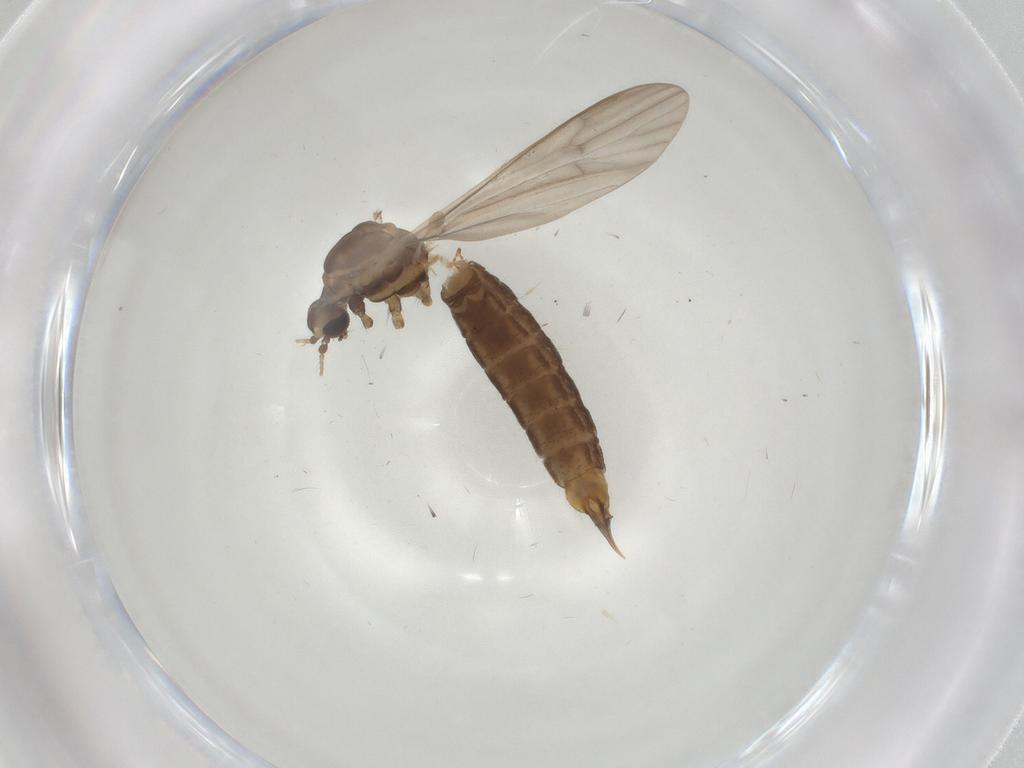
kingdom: Animalia
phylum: Arthropoda
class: Insecta
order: Diptera
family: Limoniidae
